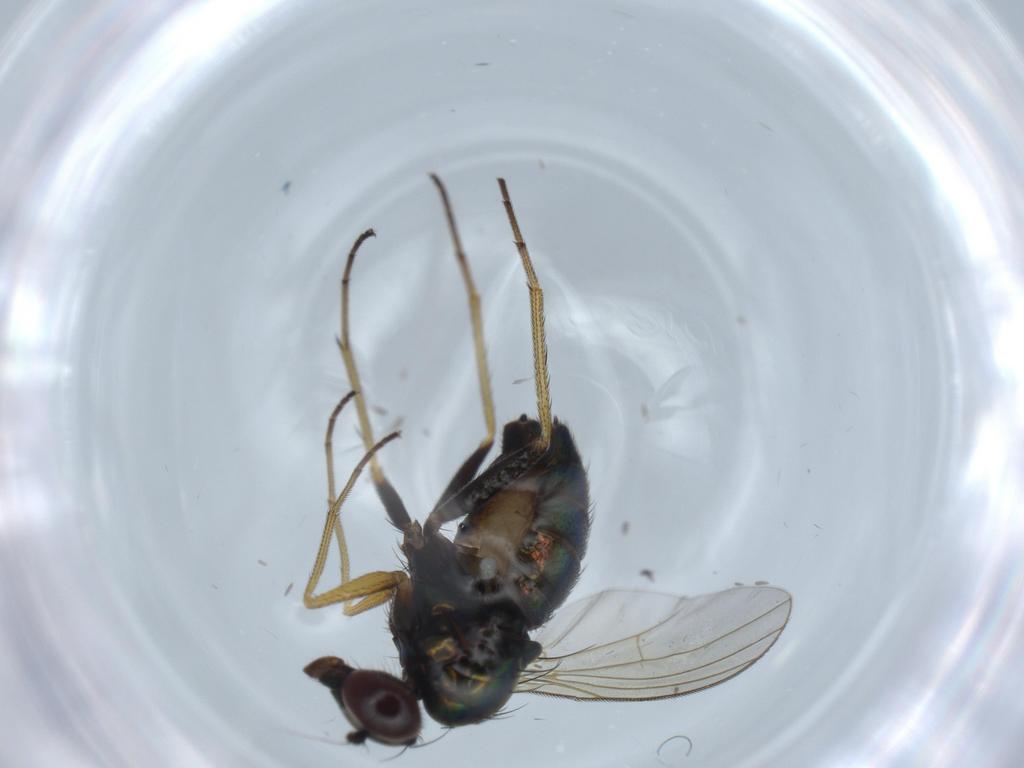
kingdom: Animalia
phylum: Arthropoda
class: Insecta
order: Diptera
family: Dolichopodidae
